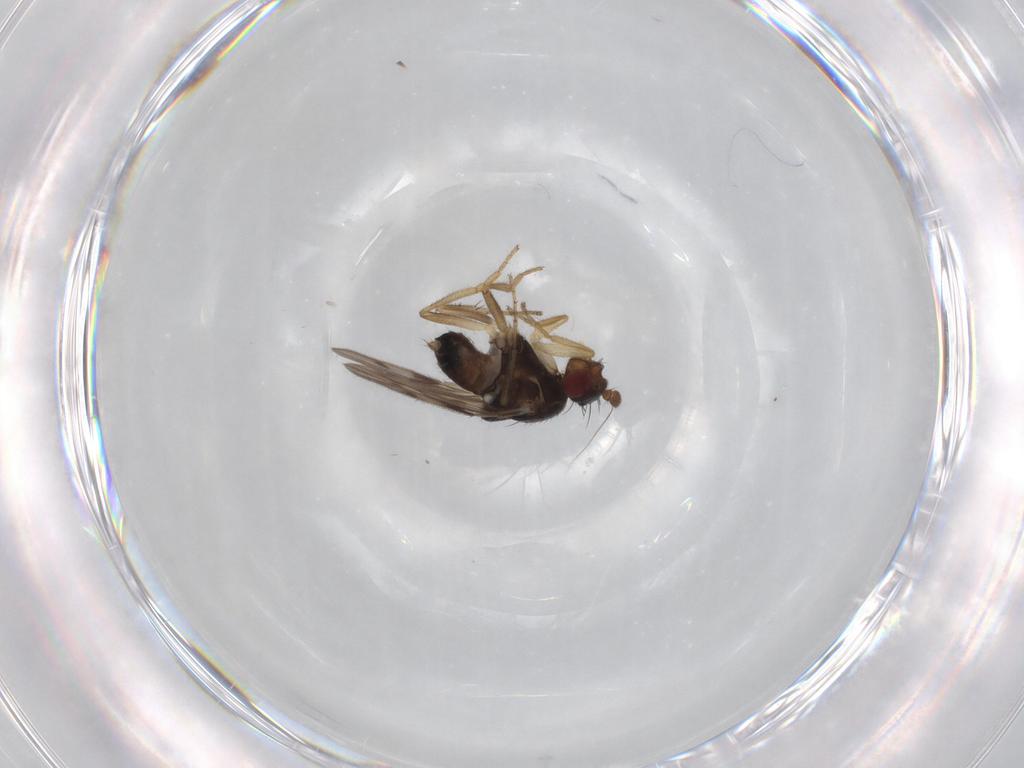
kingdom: Animalia
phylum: Arthropoda
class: Insecta
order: Diptera
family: Sphaeroceridae
